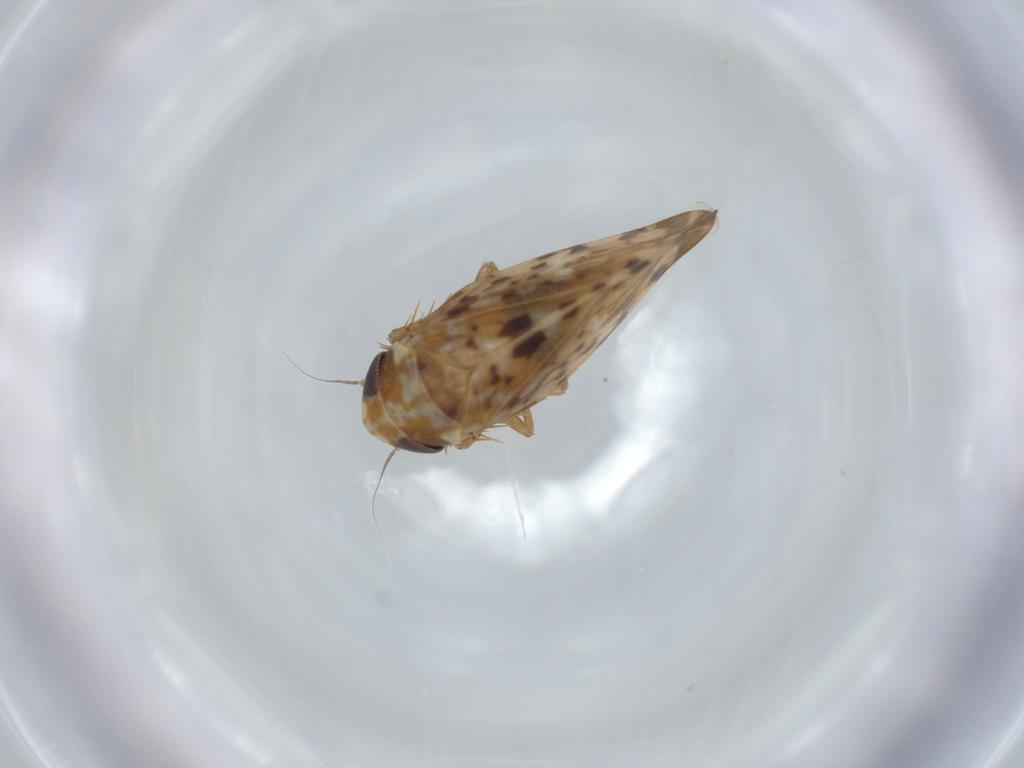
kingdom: Animalia
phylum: Arthropoda
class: Insecta
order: Hemiptera
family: Cicadellidae
